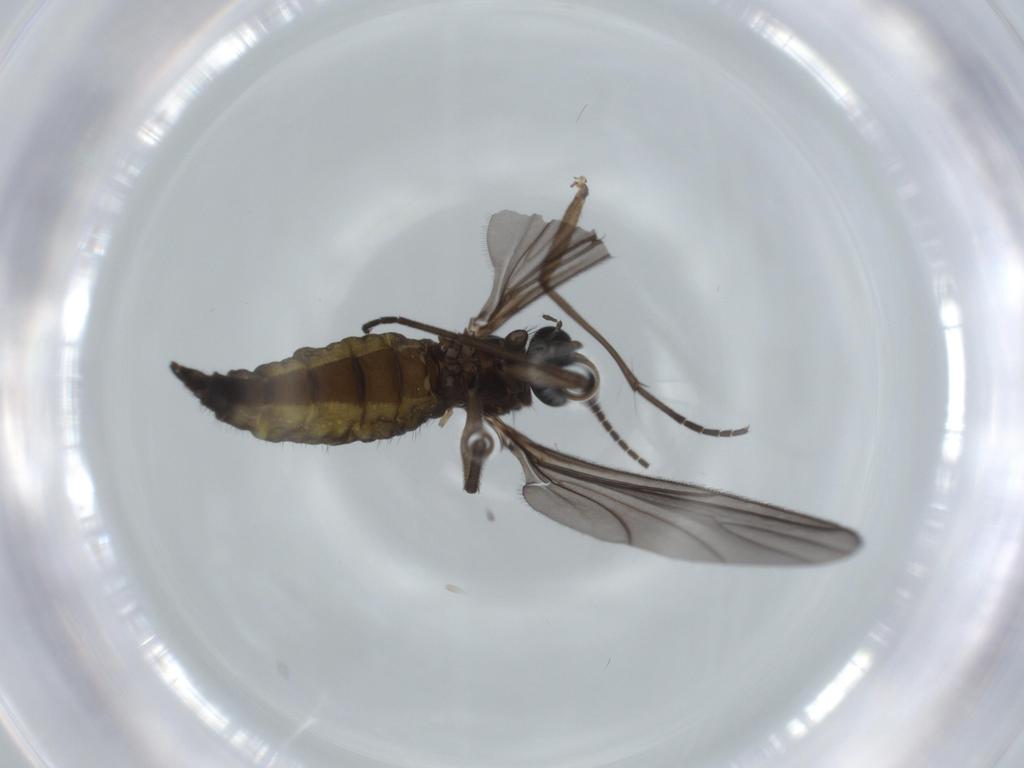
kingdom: Animalia
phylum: Arthropoda
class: Insecta
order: Diptera
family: Sciaridae
